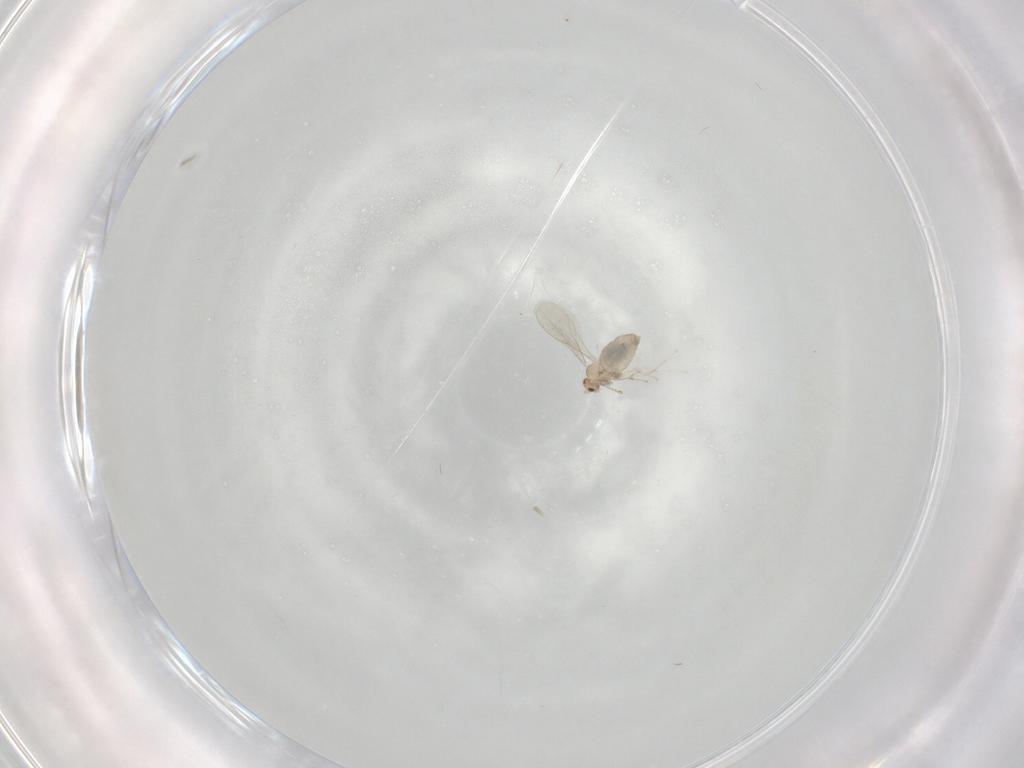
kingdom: Animalia
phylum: Arthropoda
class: Insecta
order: Diptera
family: Cecidomyiidae
